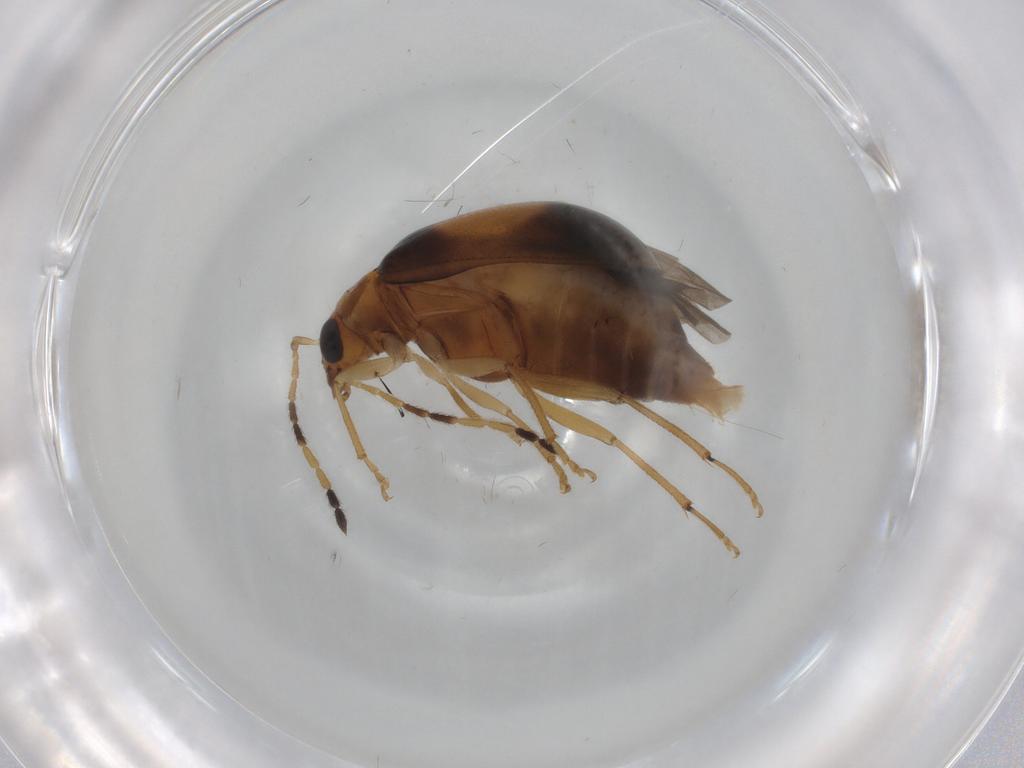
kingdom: Animalia
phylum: Arthropoda
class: Insecta
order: Coleoptera
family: Chrysomelidae
